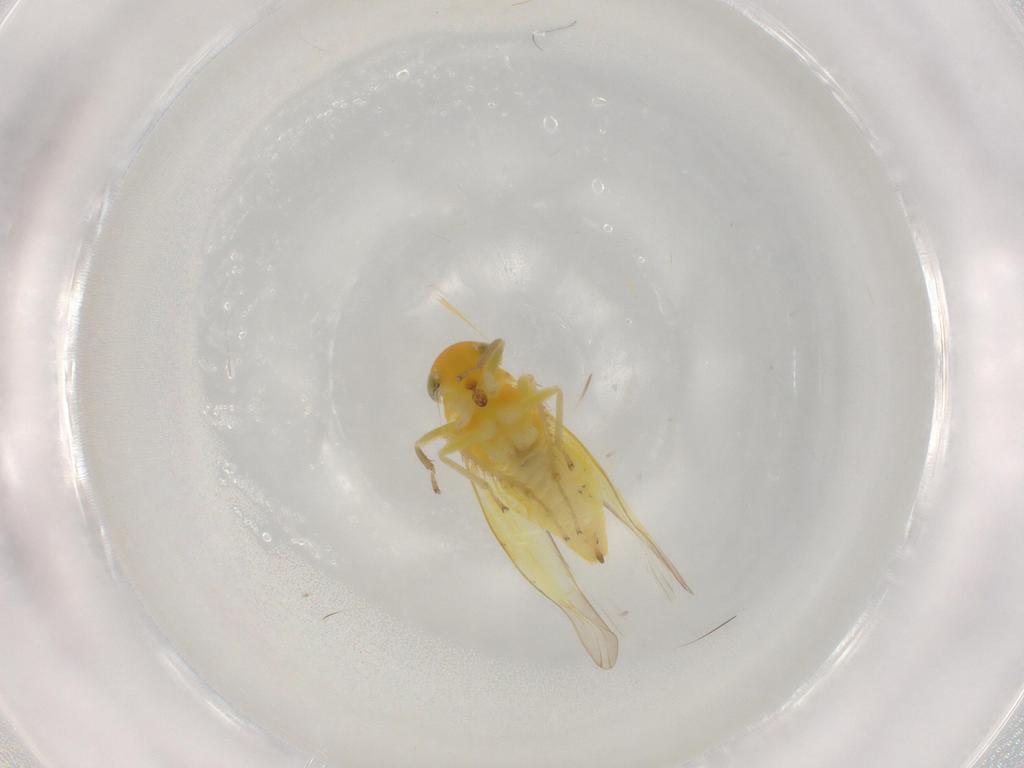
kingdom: Animalia
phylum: Arthropoda
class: Insecta
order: Hemiptera
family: Cicadellidae
